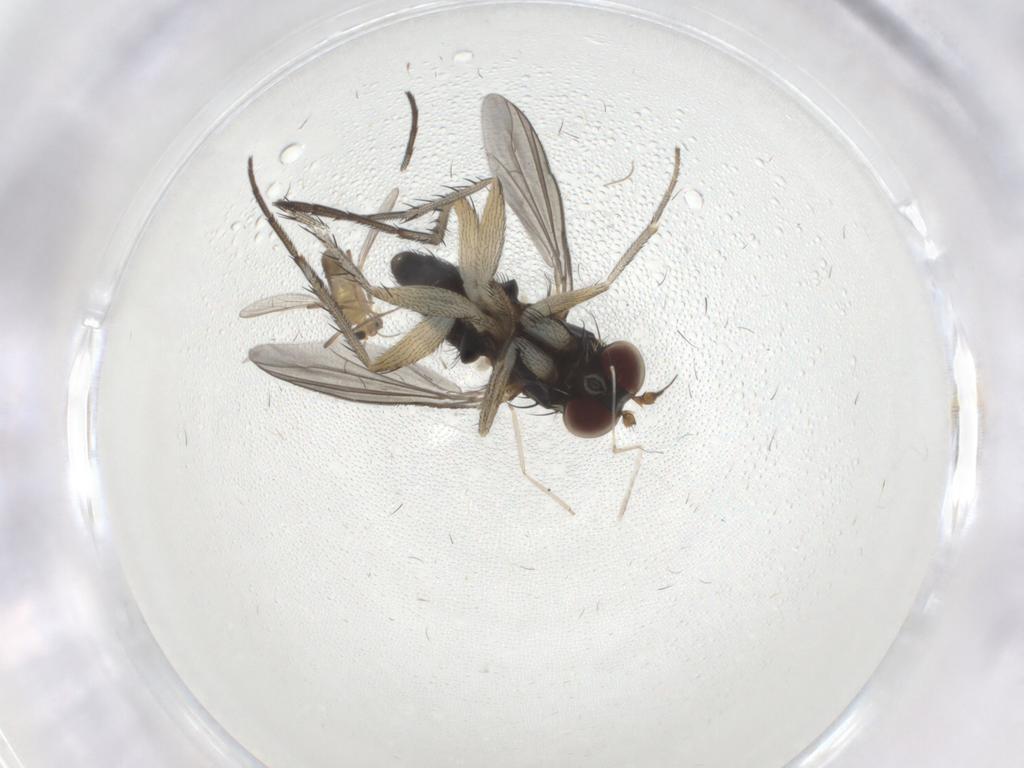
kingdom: Animalia
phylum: Arthropoda
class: Insecta
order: Diptera
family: Dolichopodidae
